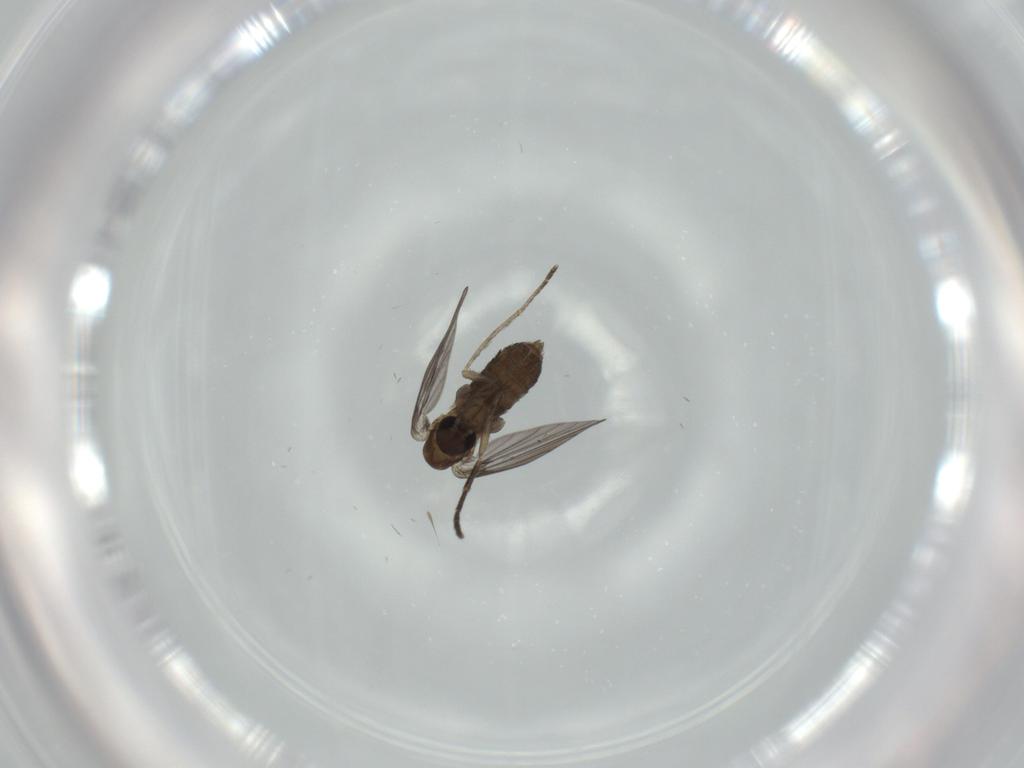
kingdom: Animalia
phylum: Arthropoda
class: Insecta
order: Diptera
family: Psychodidae
